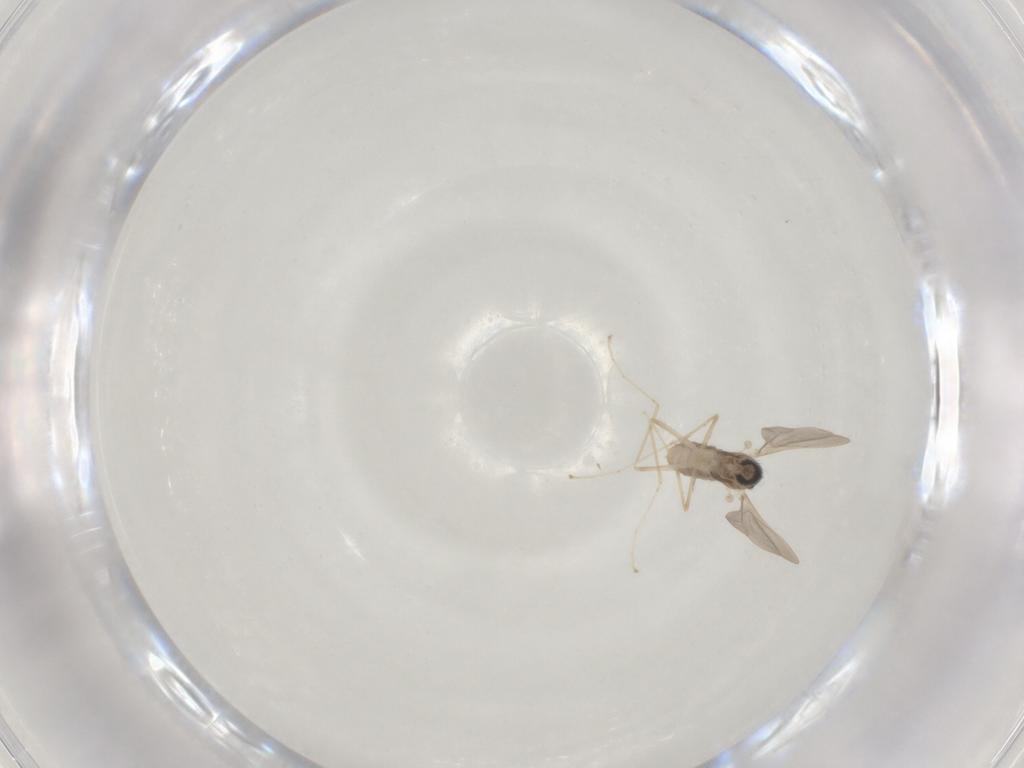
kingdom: Animalia
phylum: Arthropoda
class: Insecta
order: Diptera
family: Cecidomyiidae
